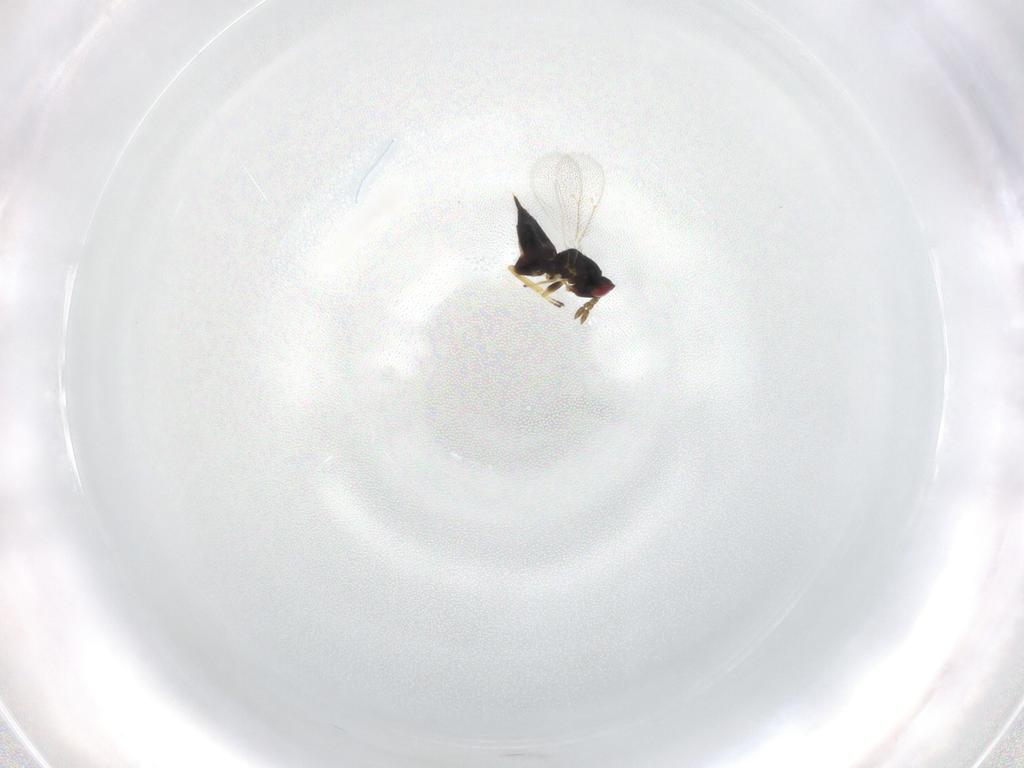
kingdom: Animalia
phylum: Arthropoda
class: Insecta
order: Hymenoptera
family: Eulophidae
